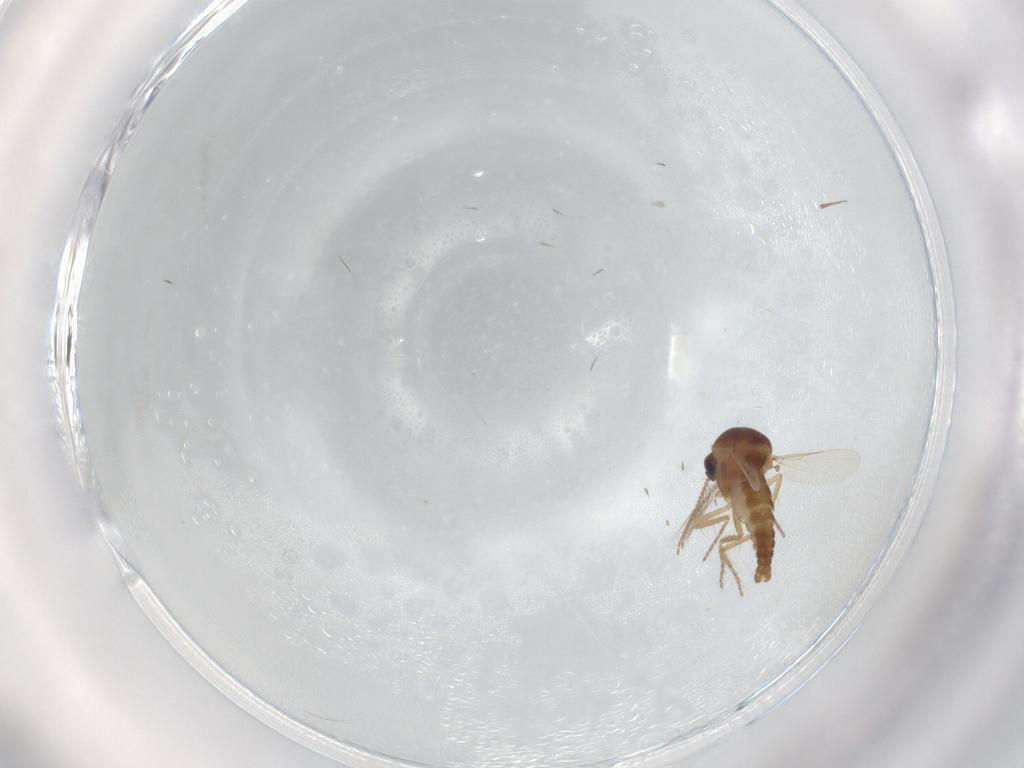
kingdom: Animalia
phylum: Arthropoda
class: Insecta
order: Diptera
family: Ceratopogonidae
